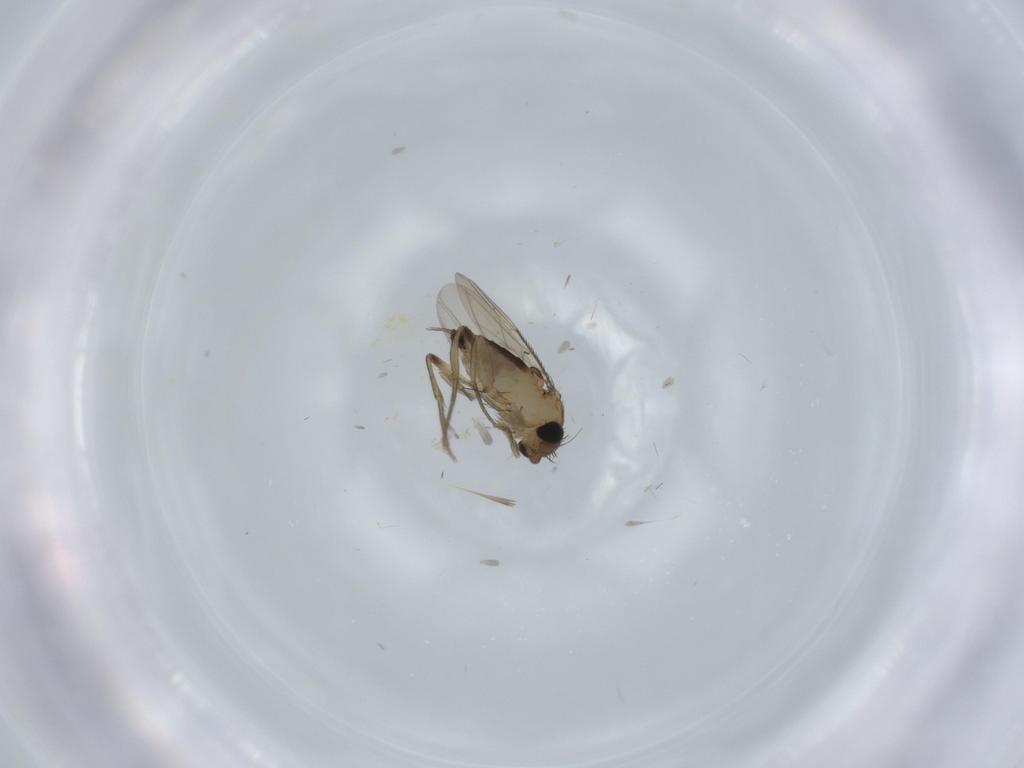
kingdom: Animalia
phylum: Arthropoda
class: Insecta
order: Diptera
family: Phoridae
